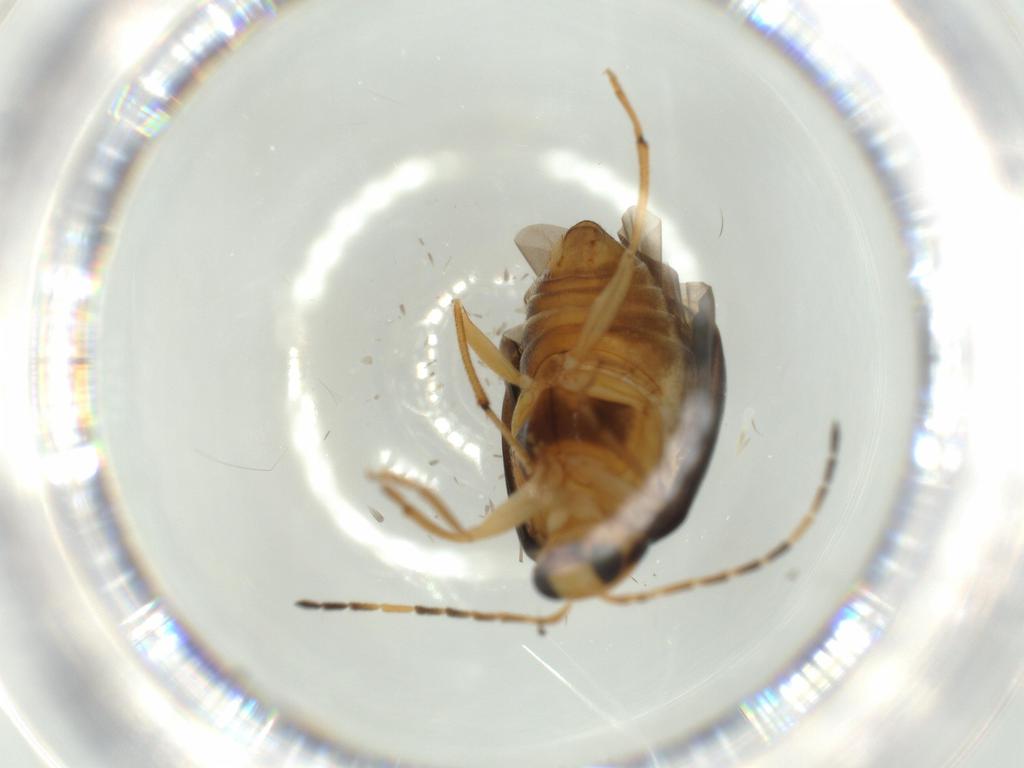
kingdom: Animalia
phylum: Arthropoda
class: Insecta
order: Coleoptera
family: Chrysomelidae
